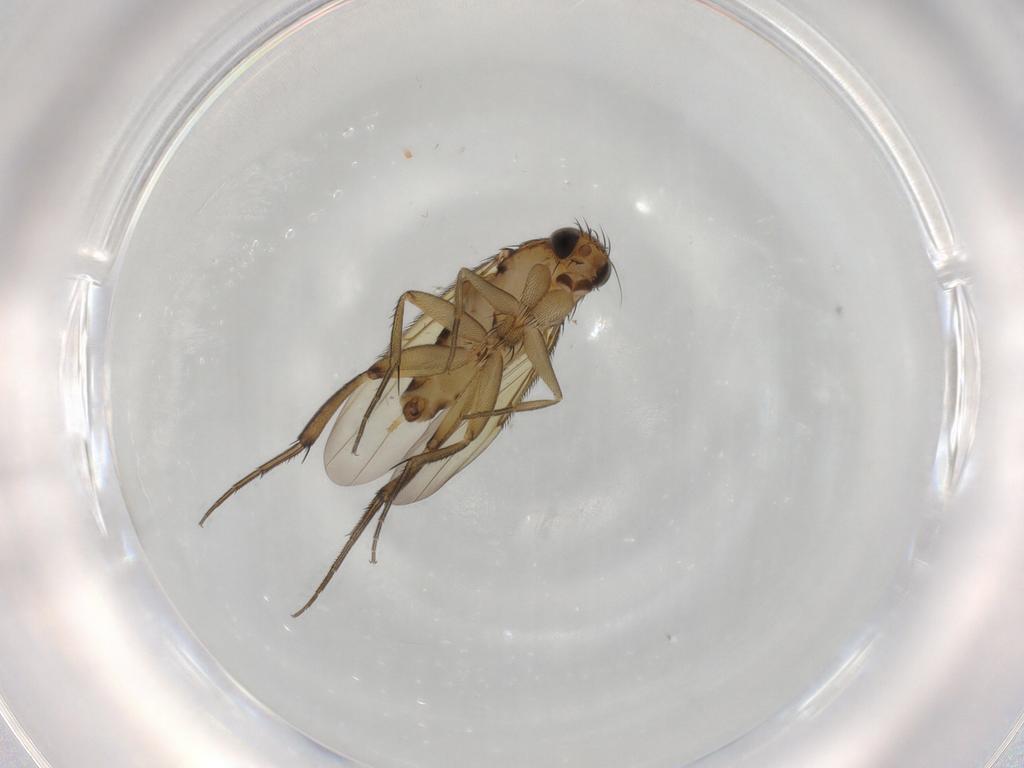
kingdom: Animalia
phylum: Arthropoda
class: Insecta
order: Diptera
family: Phoridae
